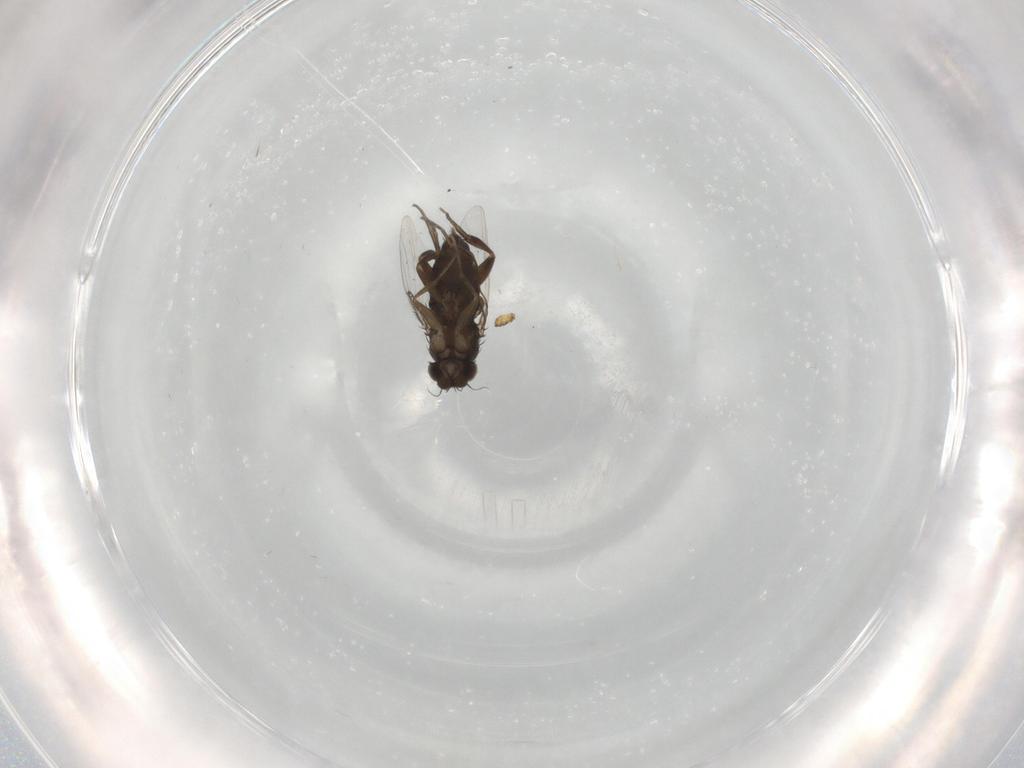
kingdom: Animalia
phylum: Arthropoda
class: Insecta
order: Diptera
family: Phoridae
